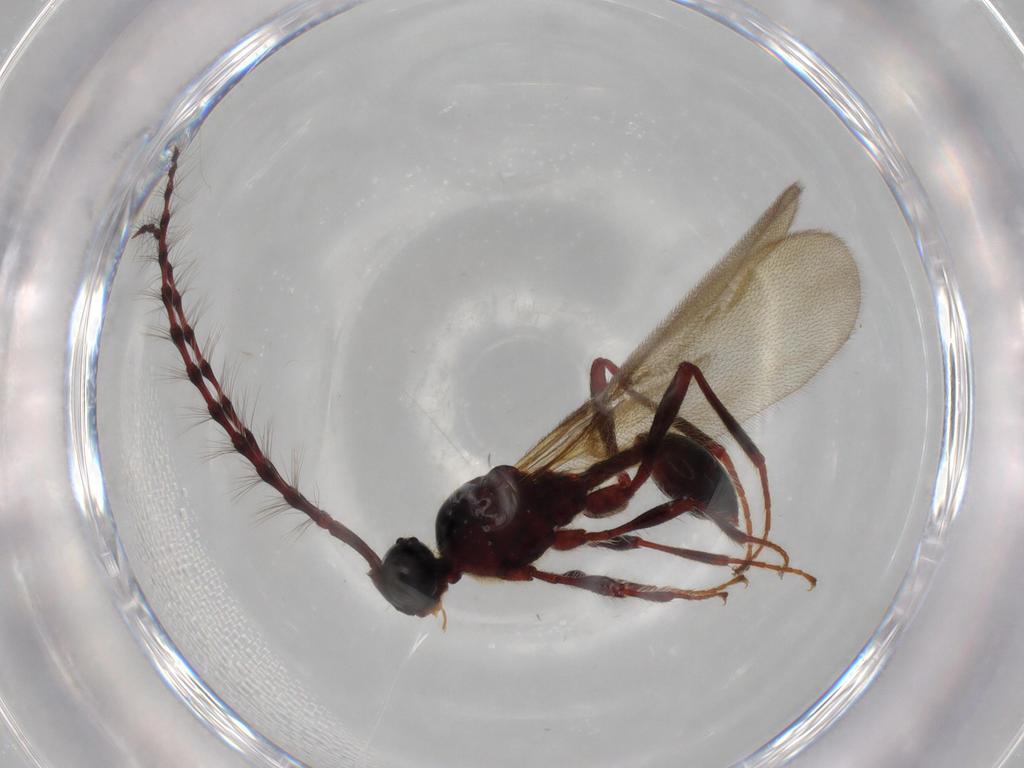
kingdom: Animalia
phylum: Arthropoda
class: Insecta
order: Hymenoptera
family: Diapriidae
